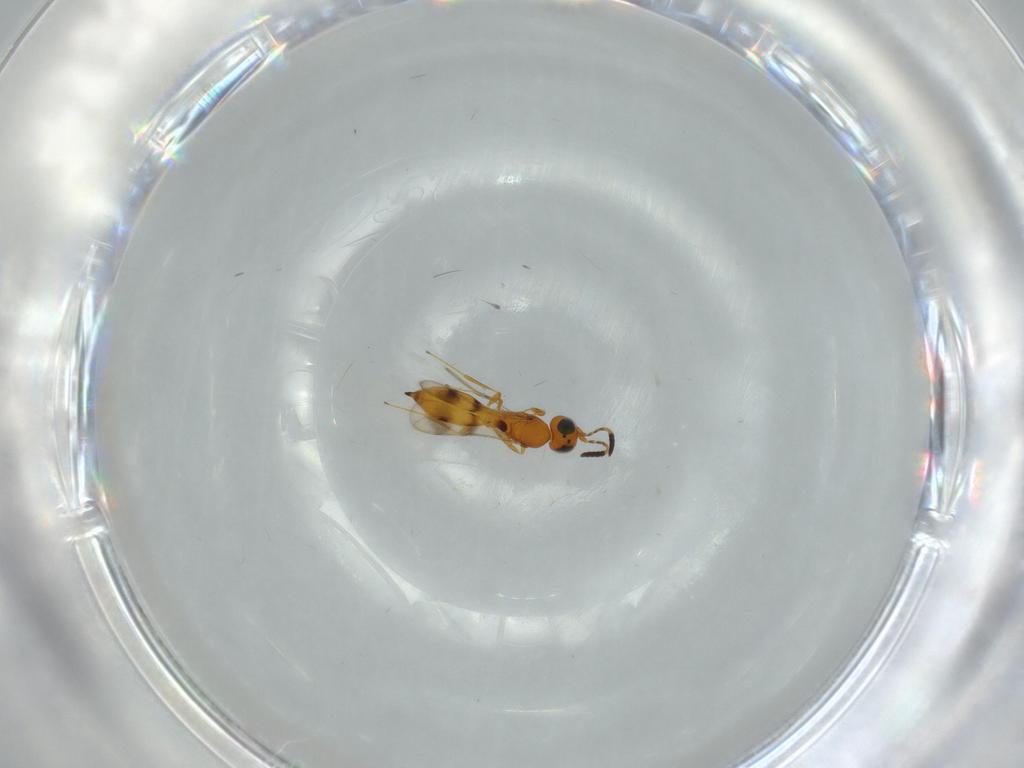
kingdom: Animalia
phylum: Arthropoda
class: Insecta
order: Hymenoptera
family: Scelionidae
